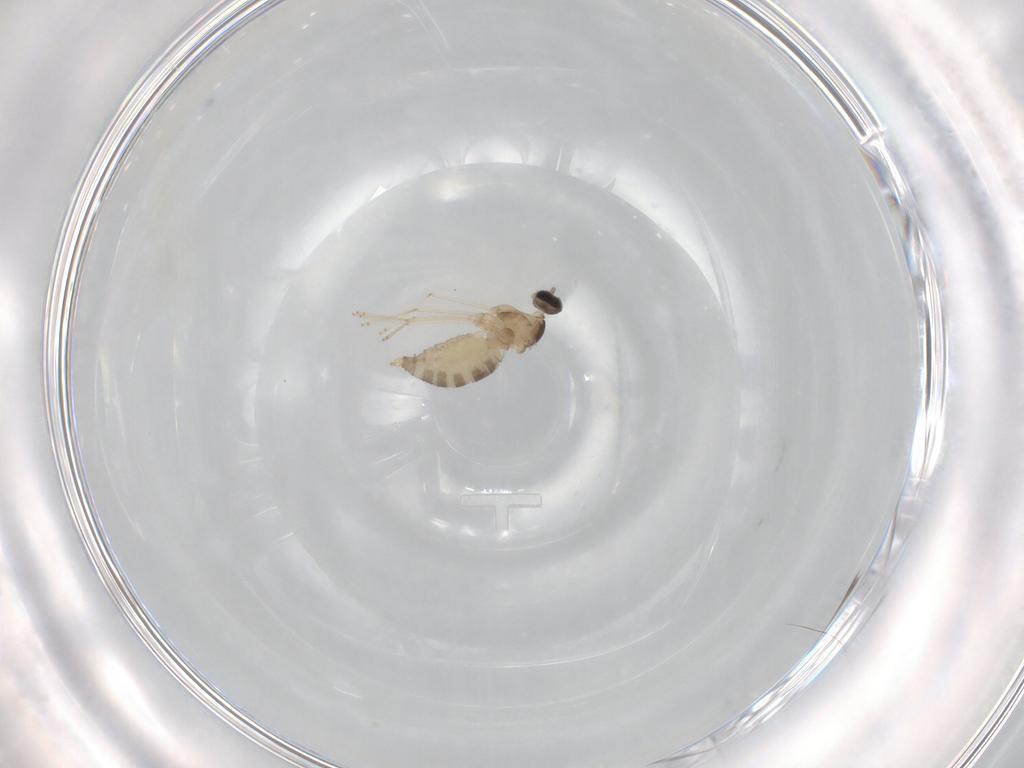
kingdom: Animalia
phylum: Arthropoda
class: Insecta
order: Diptera
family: Cecidomyiidae
